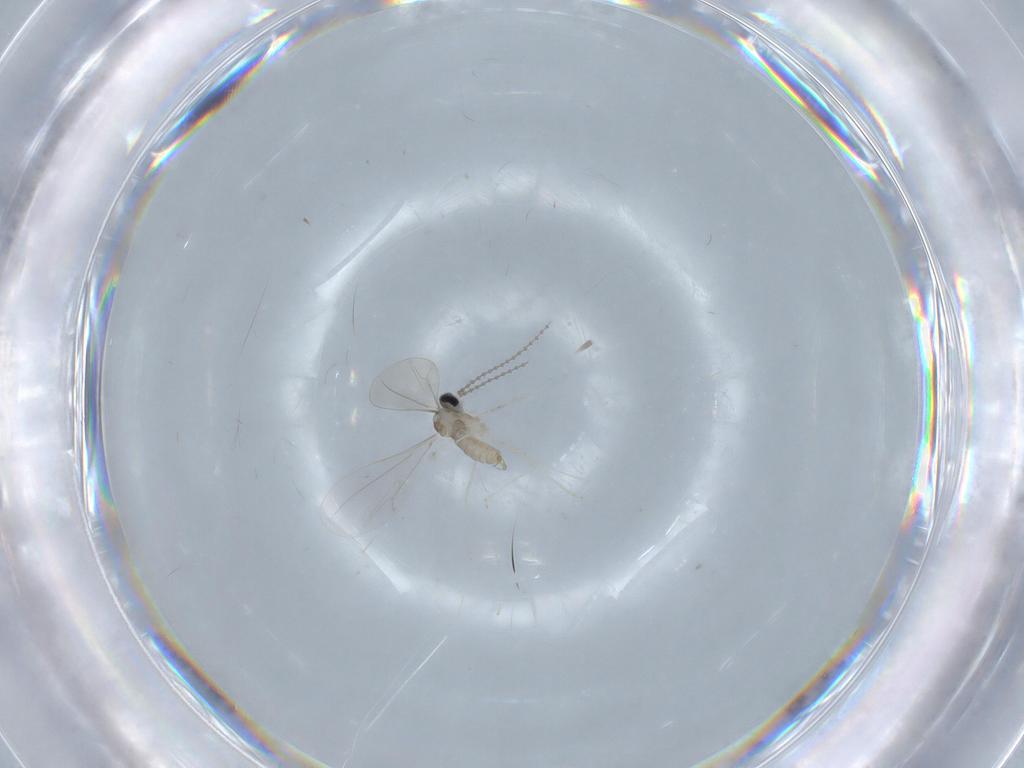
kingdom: Animalia
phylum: Arthropoda
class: Insecta
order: Diptera
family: Cecidomyiidae
